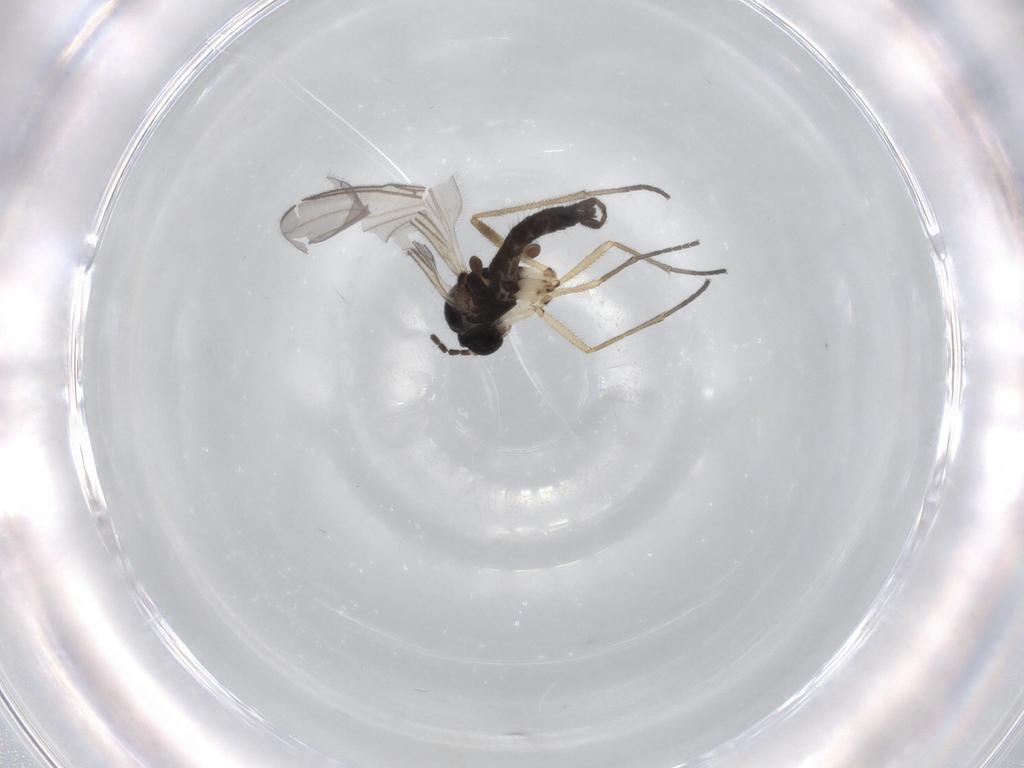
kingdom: Animalia
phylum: Arthropoda
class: Insecta
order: Diptera
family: Sciaridae
